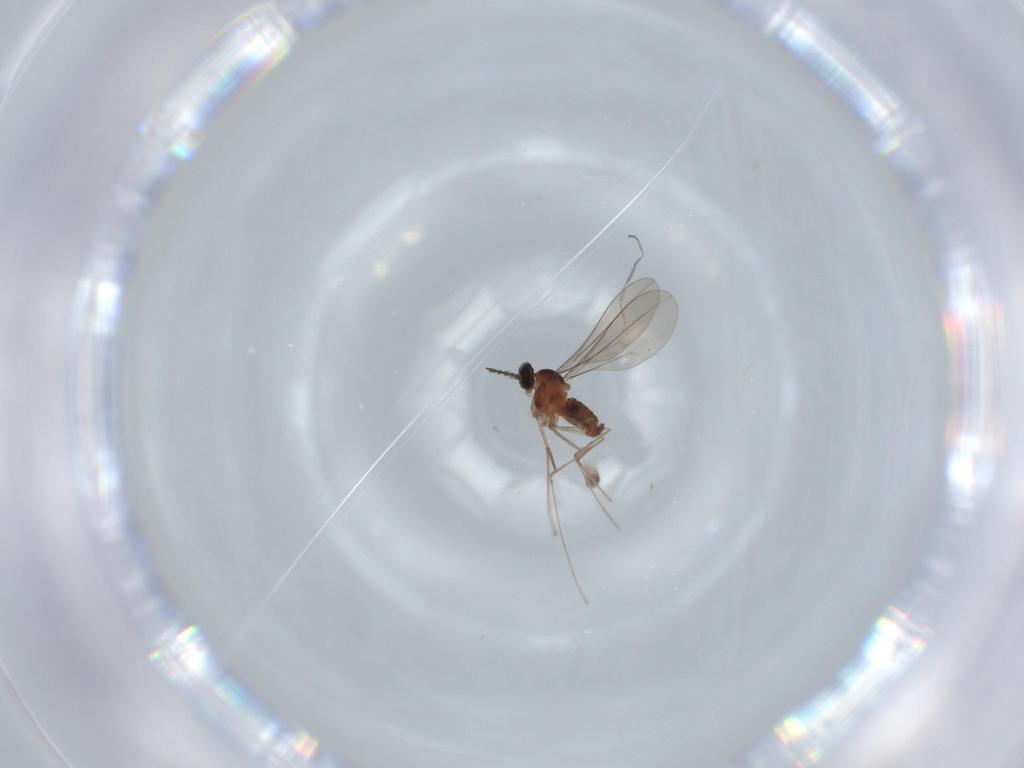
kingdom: Animalia
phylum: Arthropoda
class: Insecta
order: Diptera
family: Cecidomyiidae
